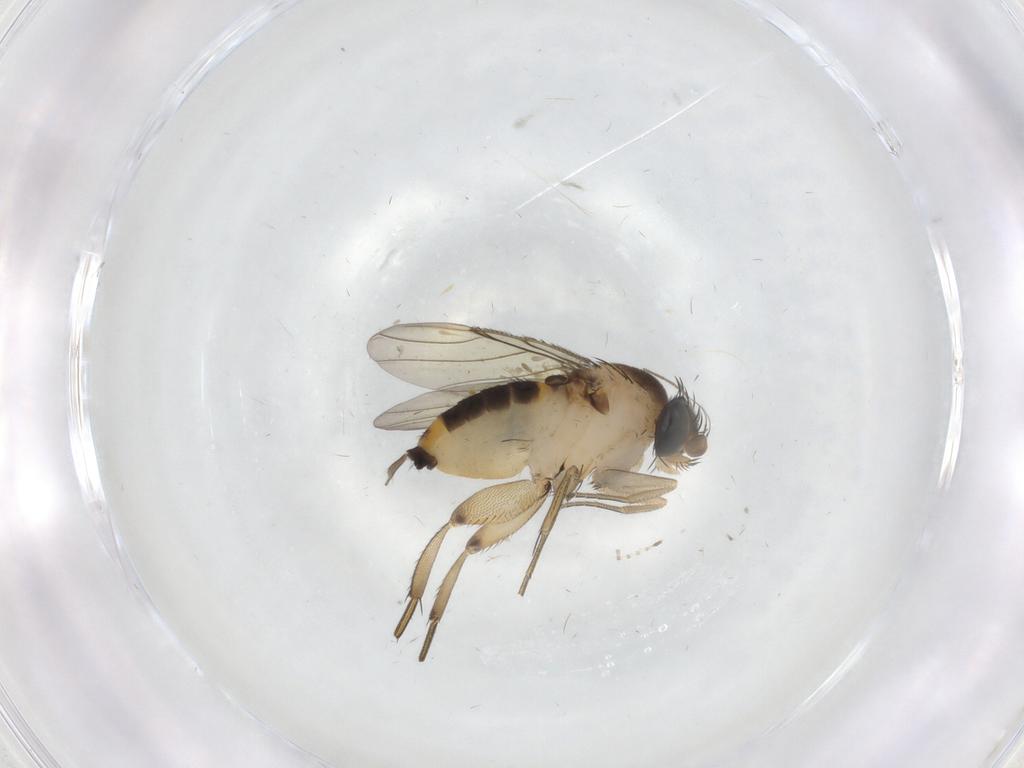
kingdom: Animalia
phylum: Arthropoda
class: Insecta
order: Diptera
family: Phoridae
